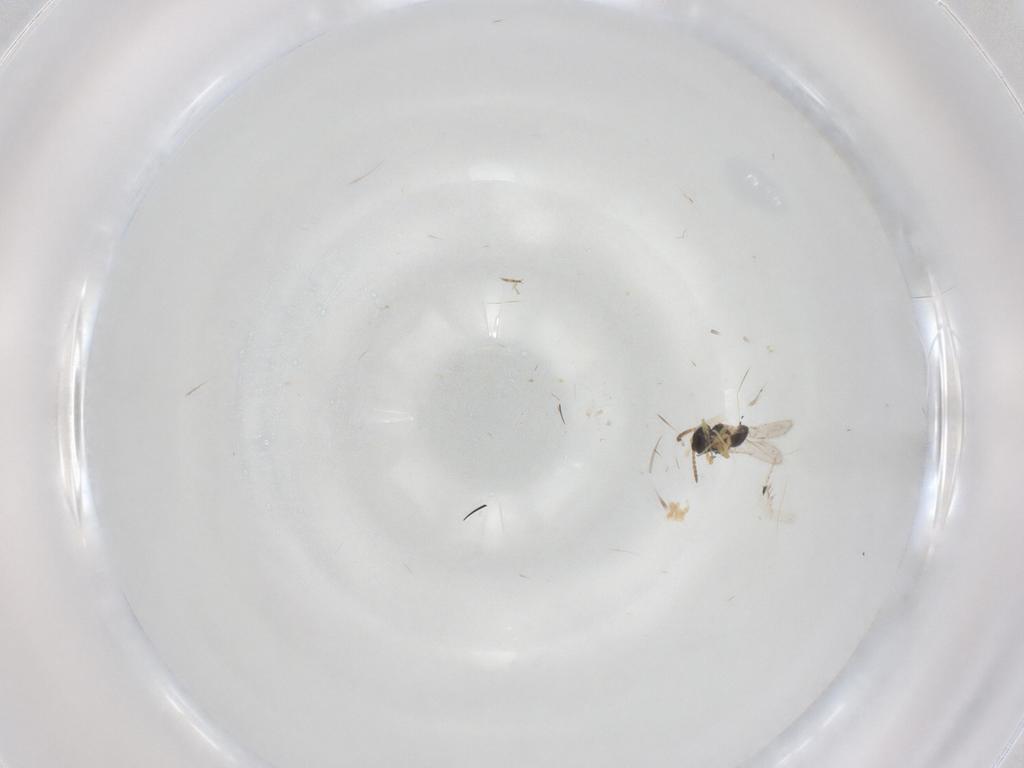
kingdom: Animalia
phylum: Arthropoda
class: Insecta
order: Hymenoptera
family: Scelionidae
